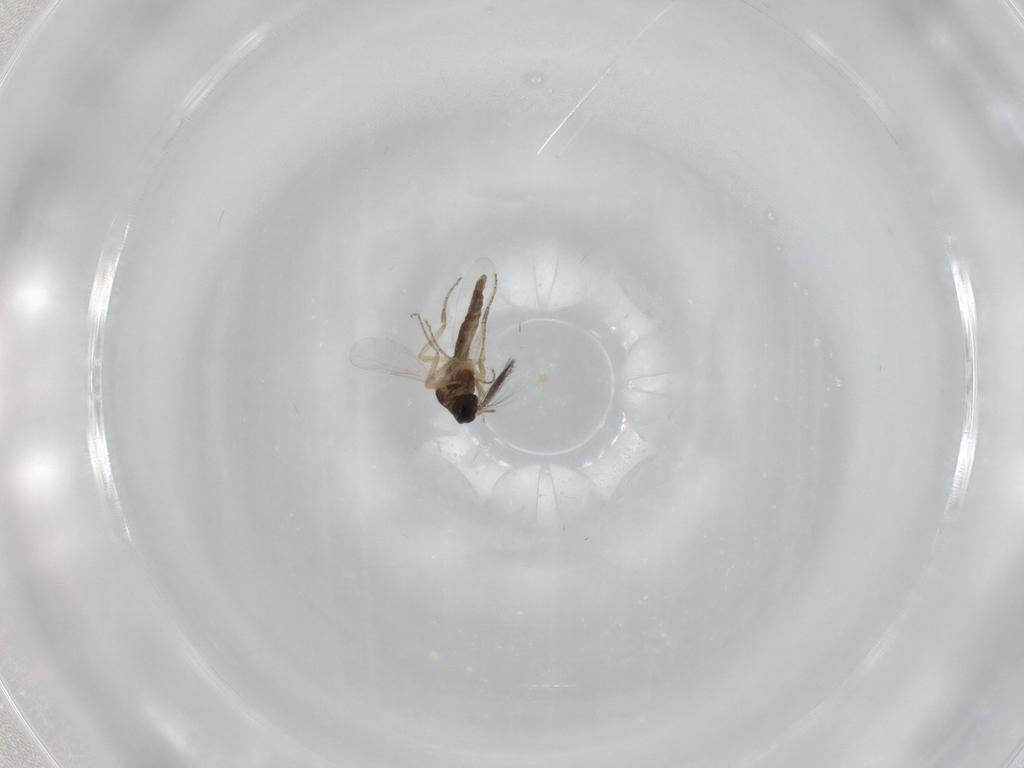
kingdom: Animalia
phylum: Arthropoda
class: Insecta
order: Diptera
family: Ceratopogonidae
